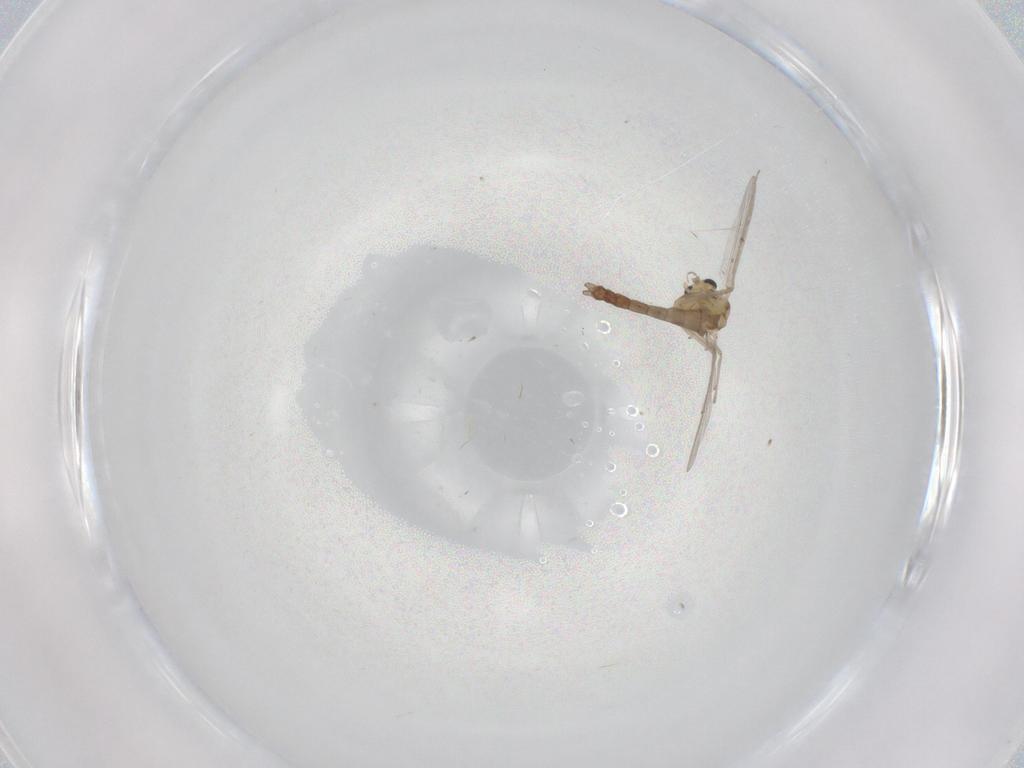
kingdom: Animalia
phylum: Arthropoda
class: Insecta
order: Diptera
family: Chironomidae
